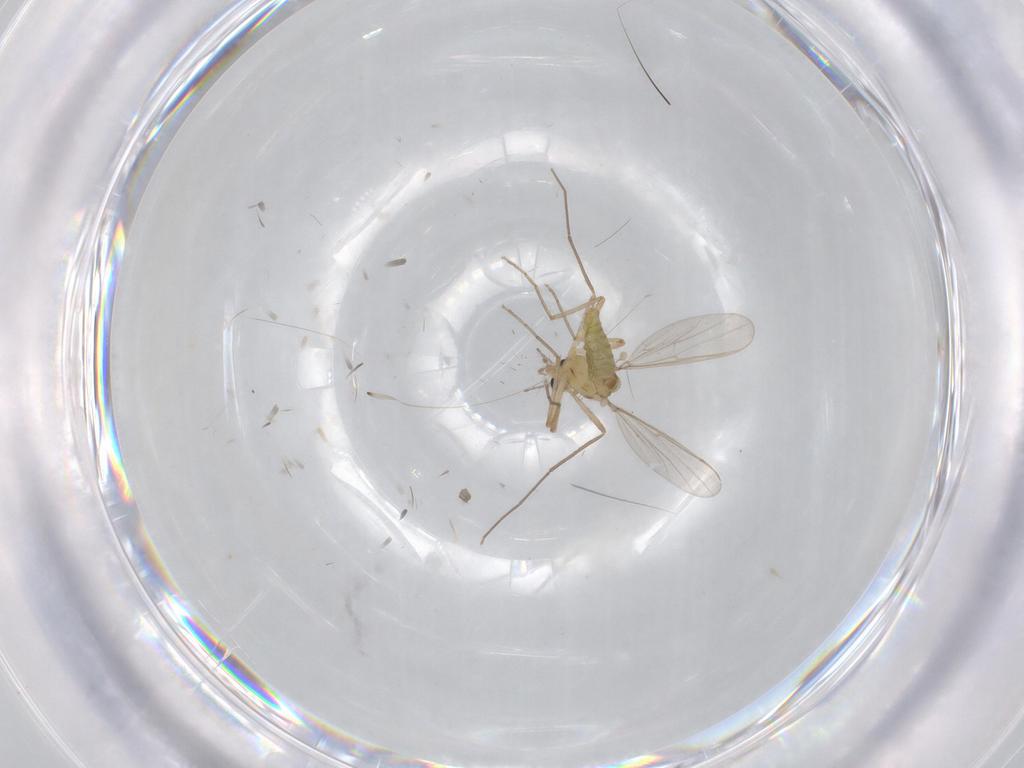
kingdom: Animalia
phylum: Arthropoda
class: Insecta
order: Diptera
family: Chironomidae
